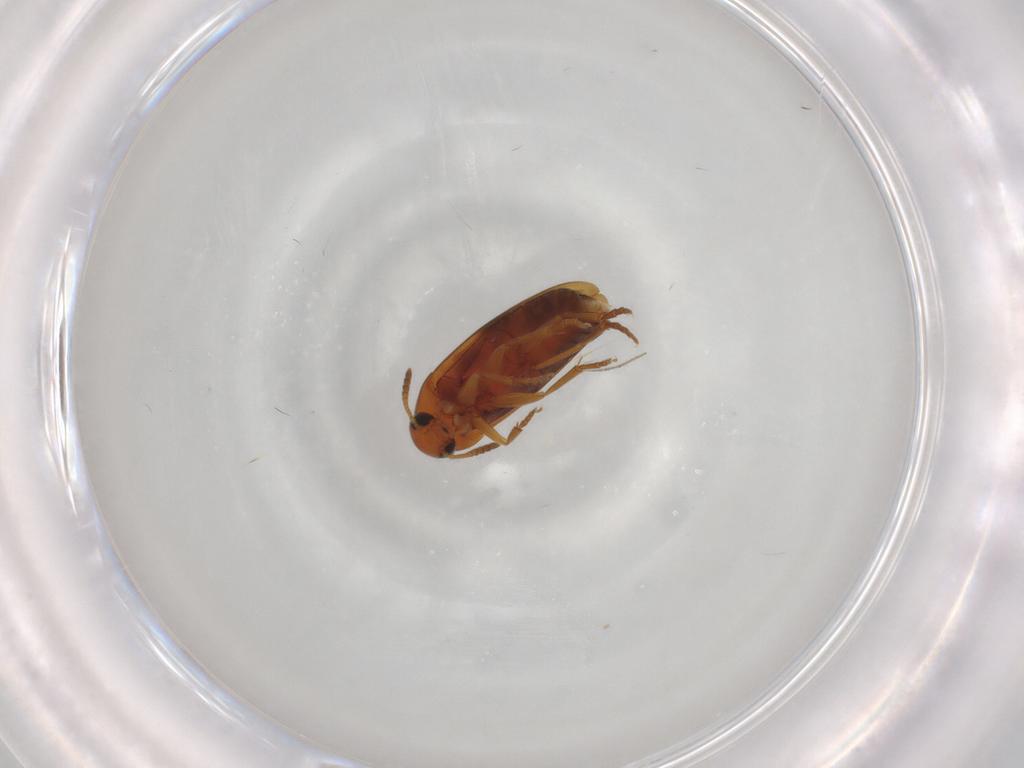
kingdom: Animalia
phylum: Arthropoda
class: Insecta
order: Coleoptera
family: Scraptiidae
